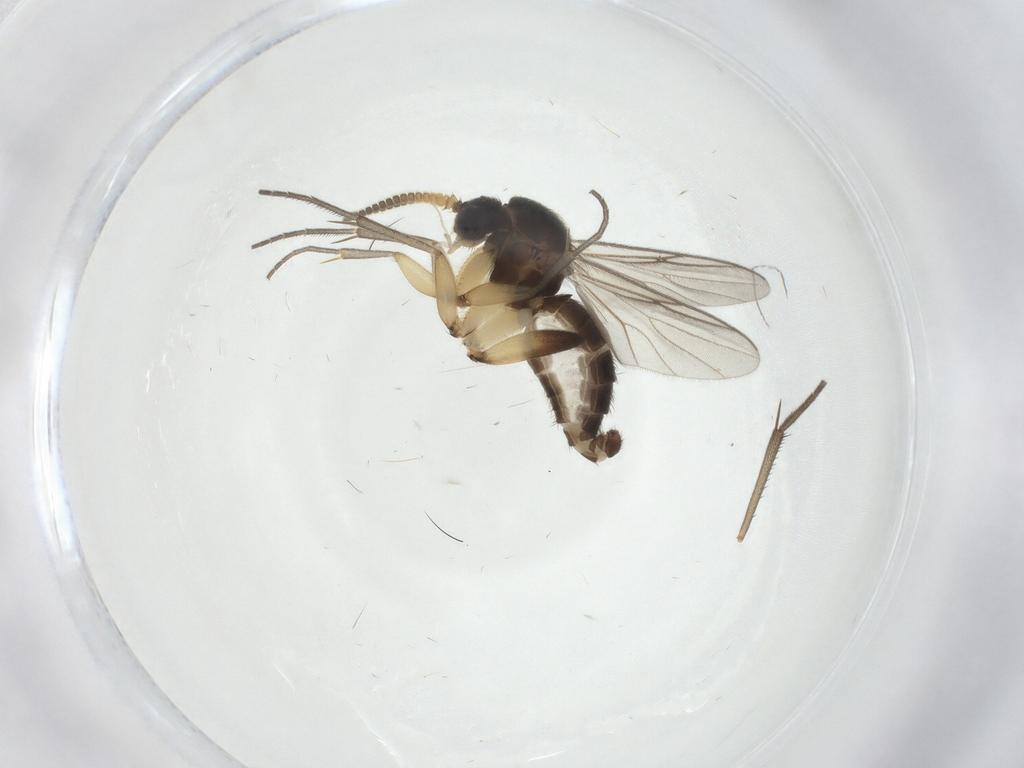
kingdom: Animalia
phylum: Arthropoda
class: Insecta
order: Diptera
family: Mycetophilidae
